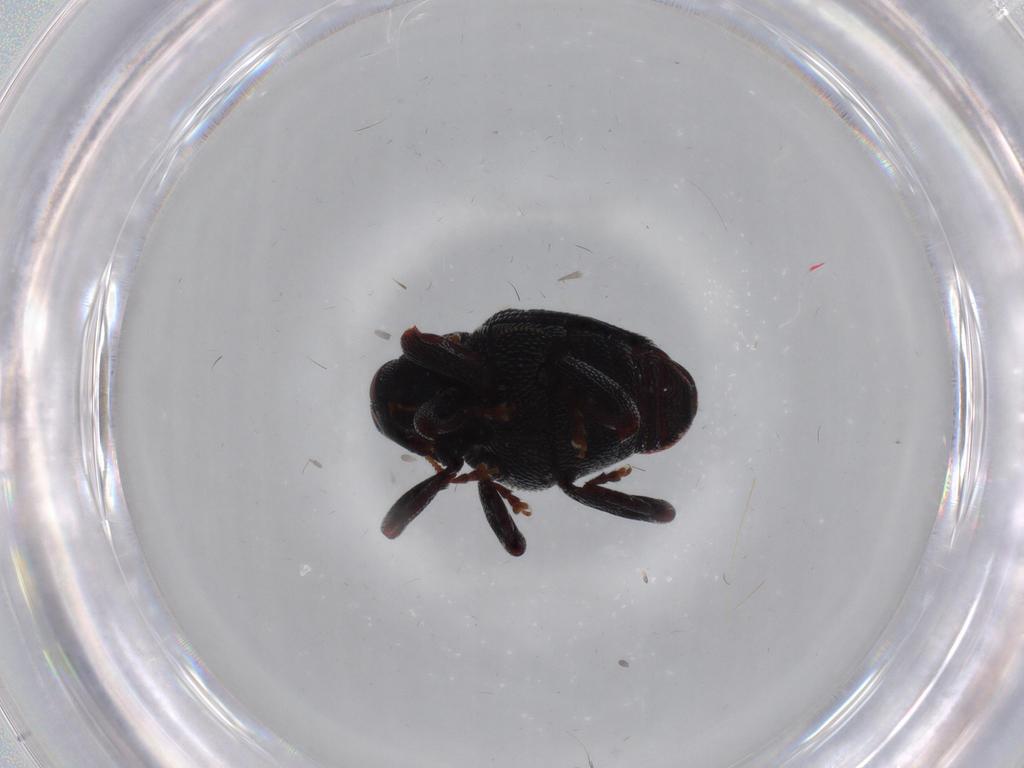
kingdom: Animalia
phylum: Arthropoda
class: Insecta
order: Coleoptera
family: Curculionidae
